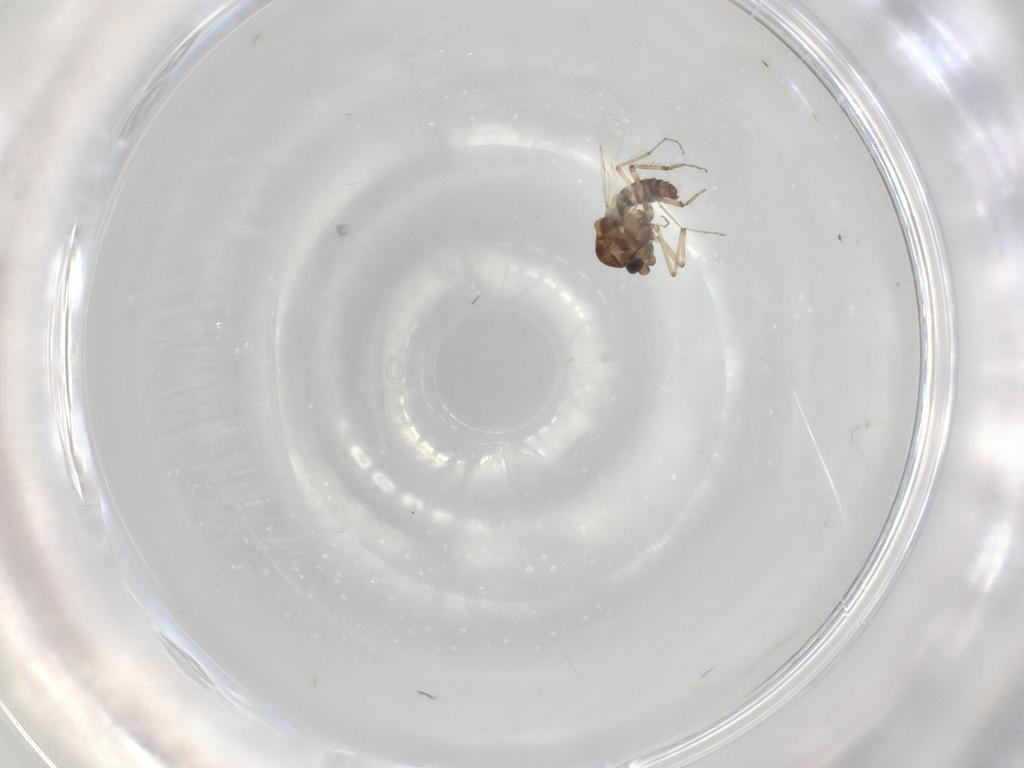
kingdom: Animalia
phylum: Arthropoda
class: Insecta
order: Diptera
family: Ceratopogonidae
